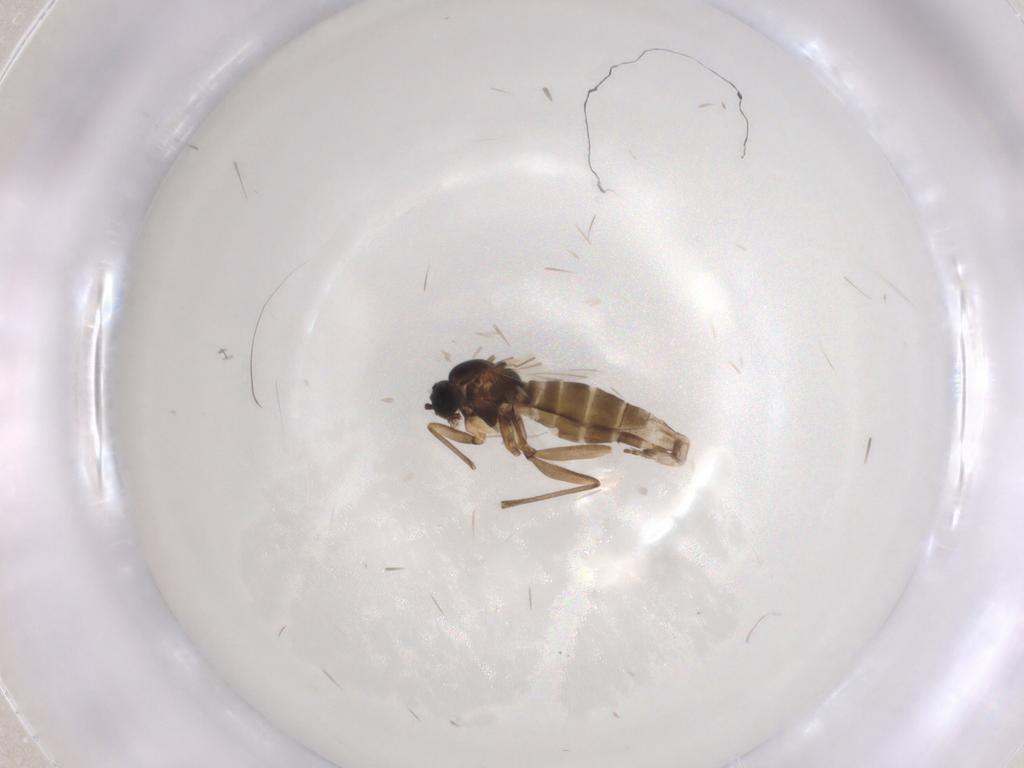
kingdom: Animalia
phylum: Arthropoda
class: Insecta
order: Diptera
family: Sciaridae
